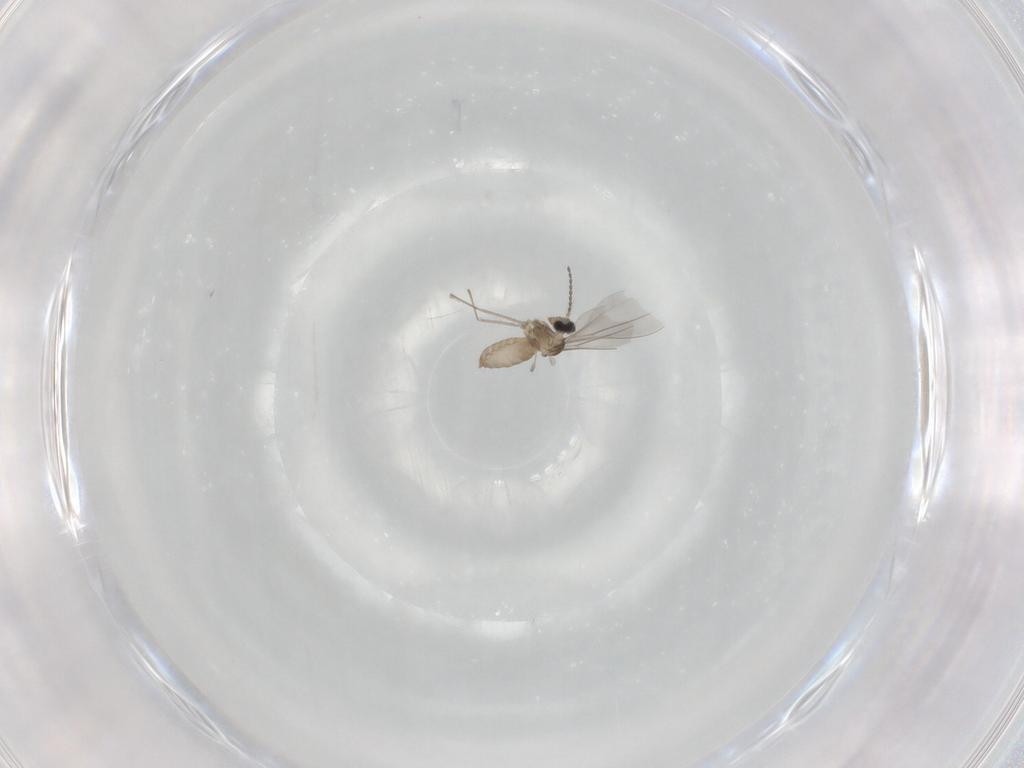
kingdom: Animalia
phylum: Arthropoda
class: Insecta
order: Diptera
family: Cecidomyiidae
